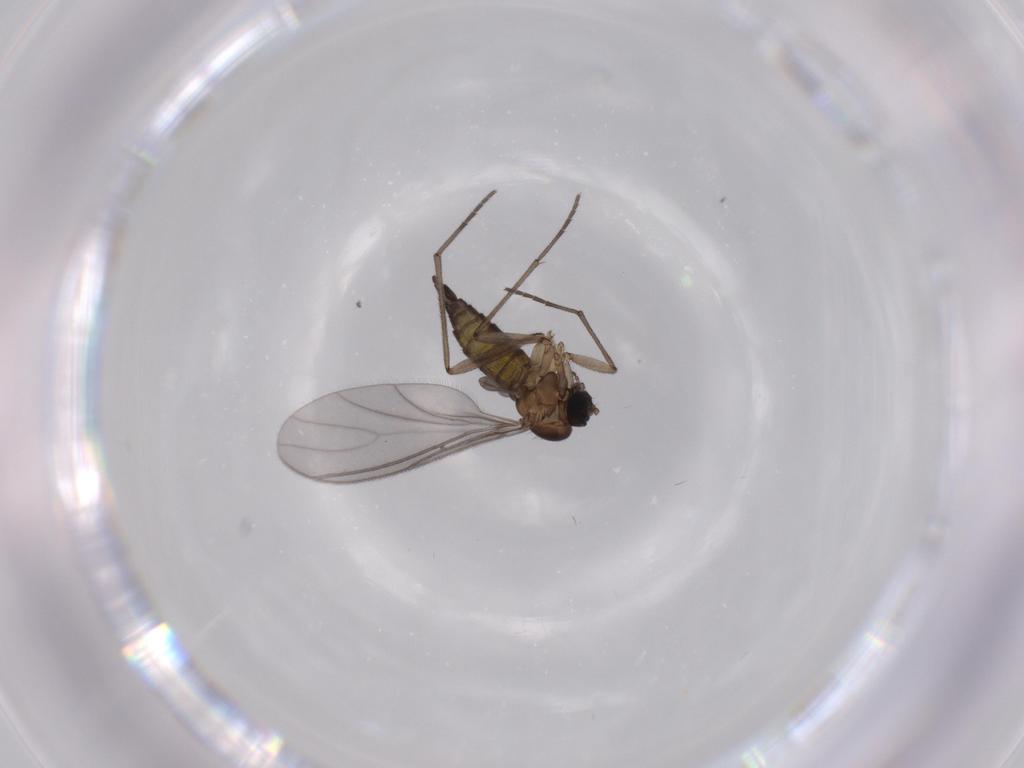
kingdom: Animalia
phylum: Arthropoda
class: Insecta
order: Diptera
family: Sciaridae
